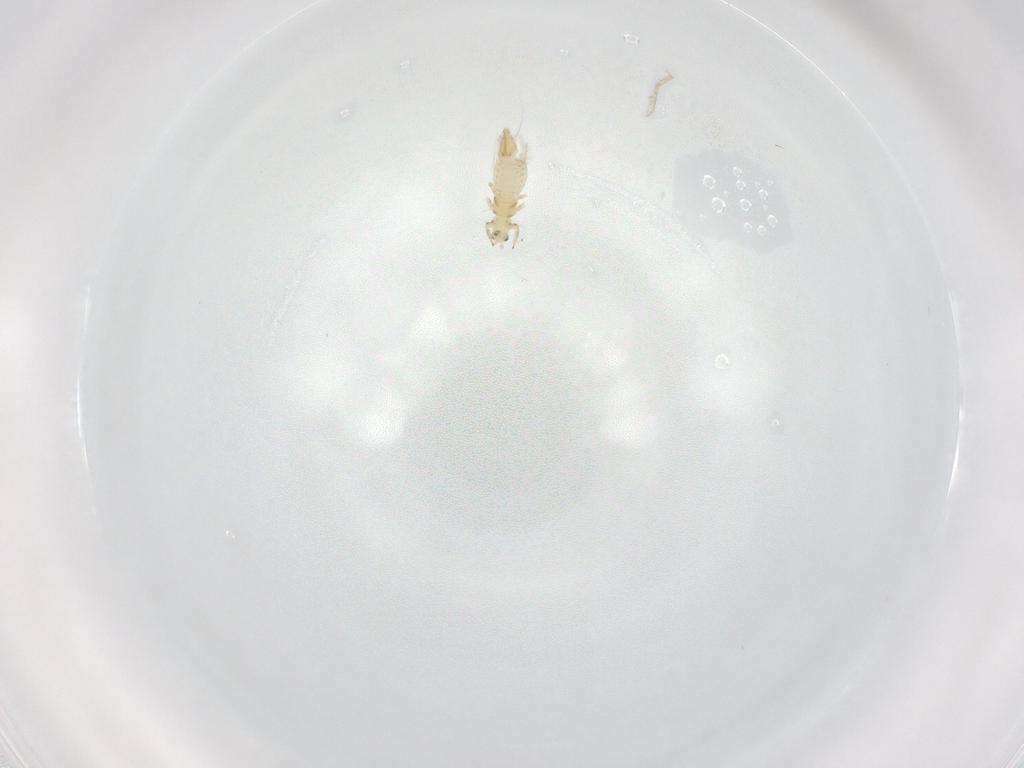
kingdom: Animalia
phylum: Arthropoda
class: Insecta
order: Thysanoptera
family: Thripidae
